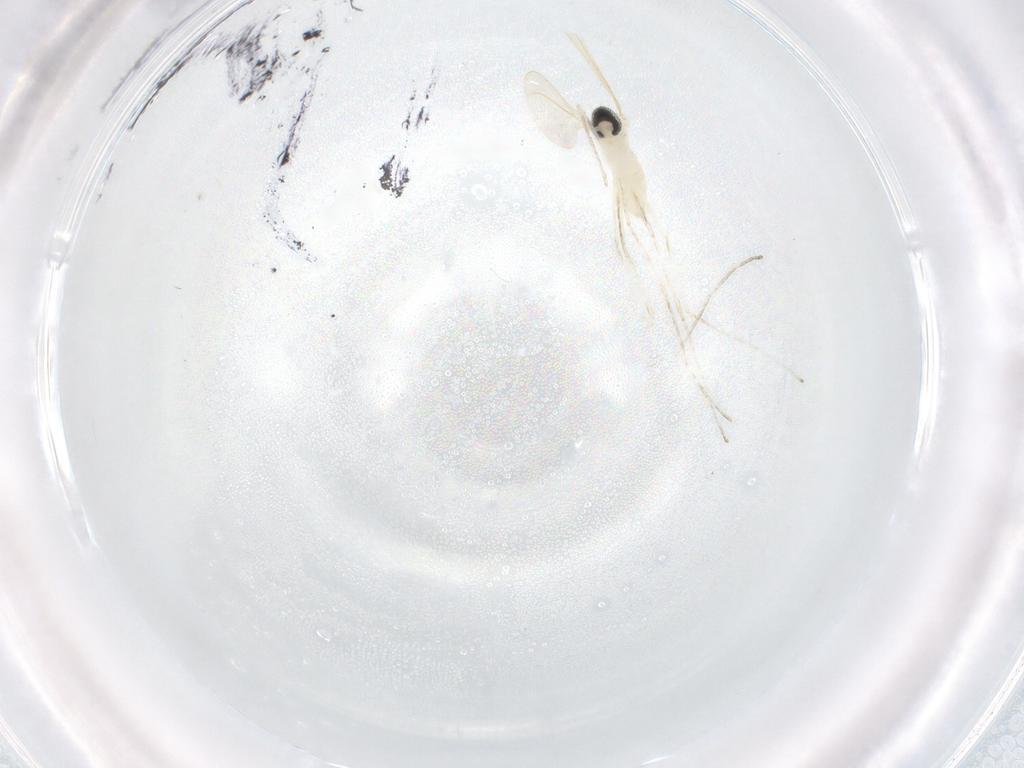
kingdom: Animalia
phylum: Arthropoda
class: Insecta
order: Diptera
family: Cecidomyiidae
